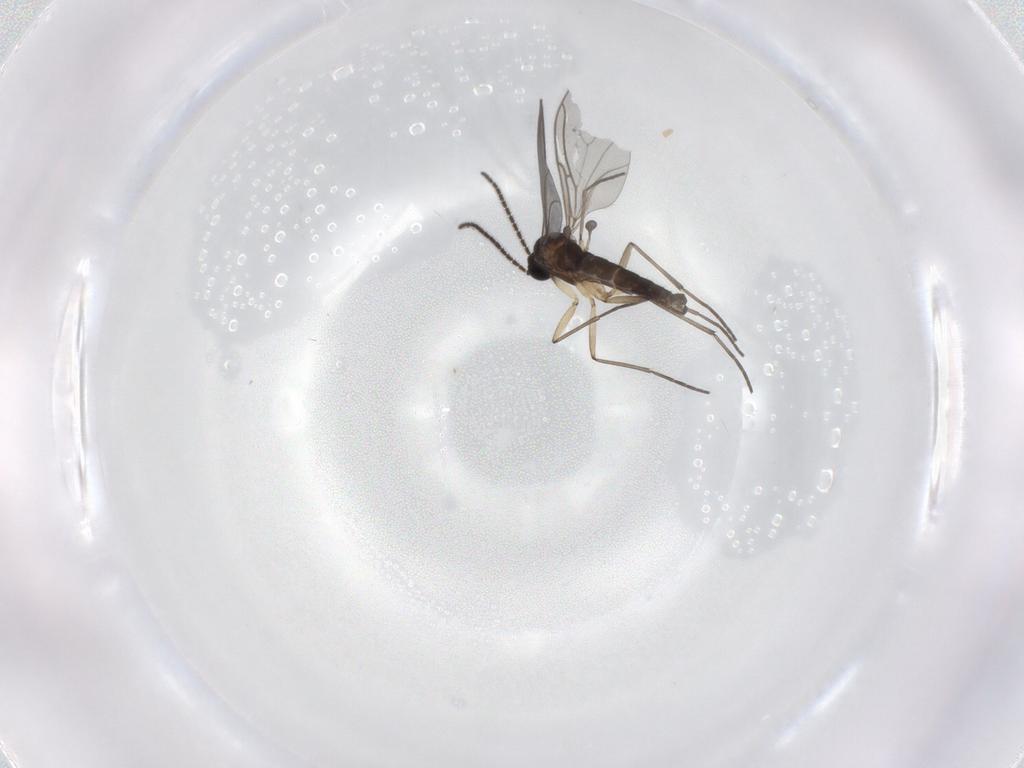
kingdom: Animalia
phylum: Arthropoda
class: Insecta
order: Diptera
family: Sciaridae
